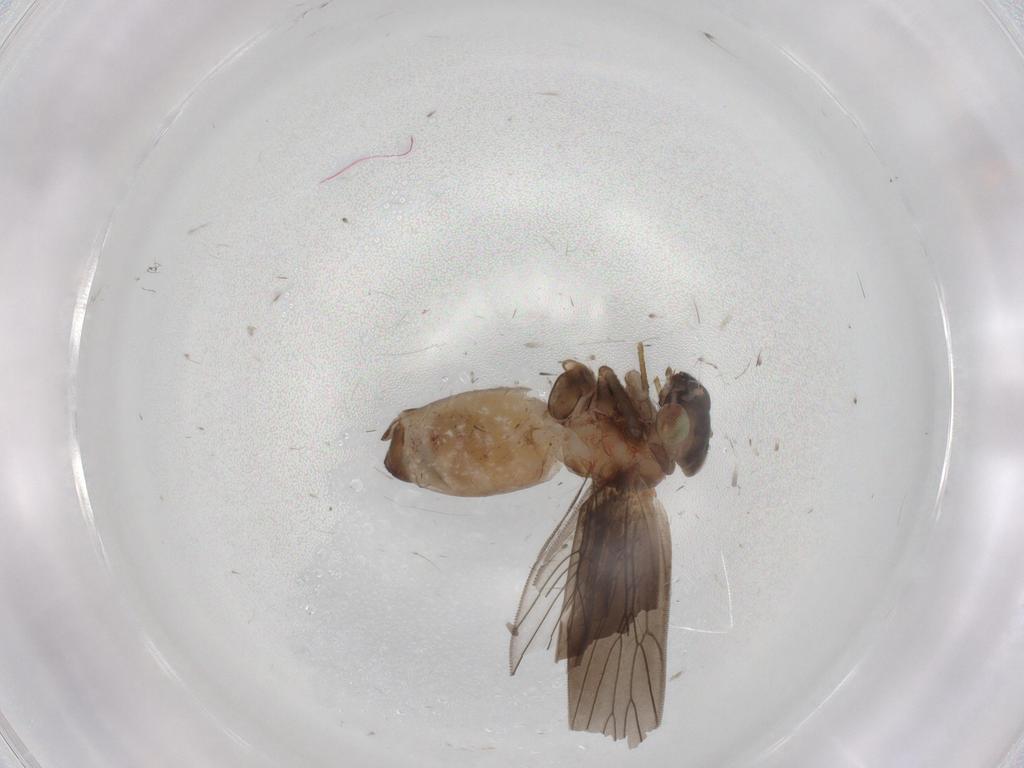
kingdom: Animalia
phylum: Arthropoda
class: Insecta
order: Psocodea
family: Lepidopsocidae
